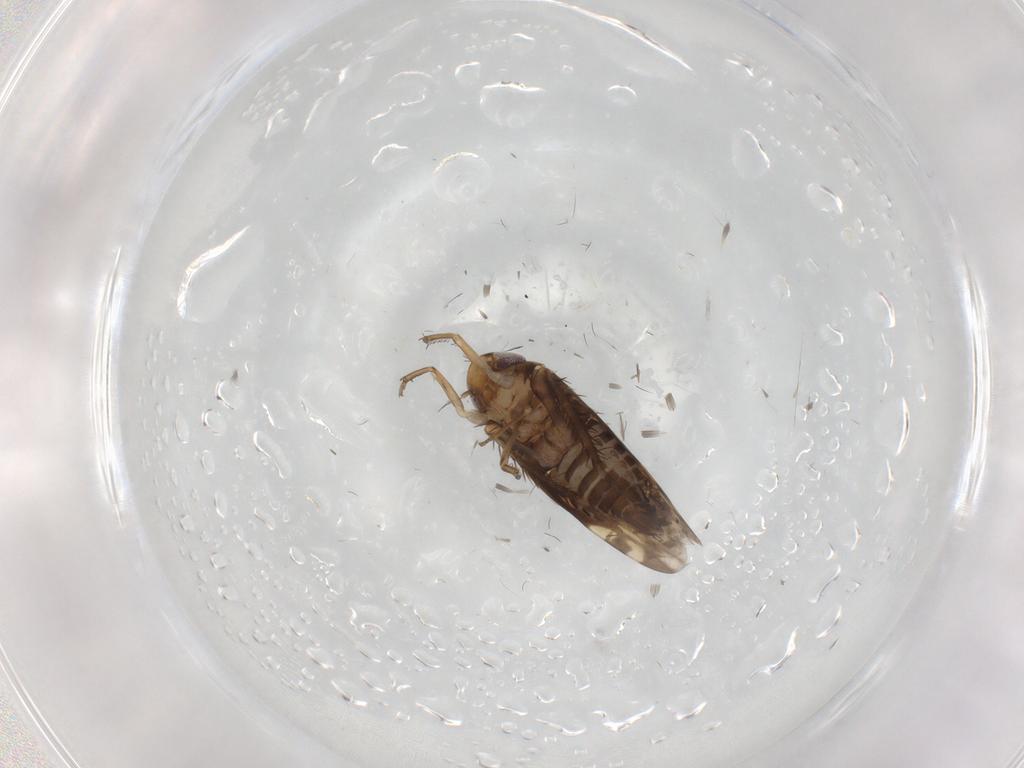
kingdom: Animalia
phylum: Arthropoda
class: Insecta
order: Hemiptera
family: Cicadellidae
